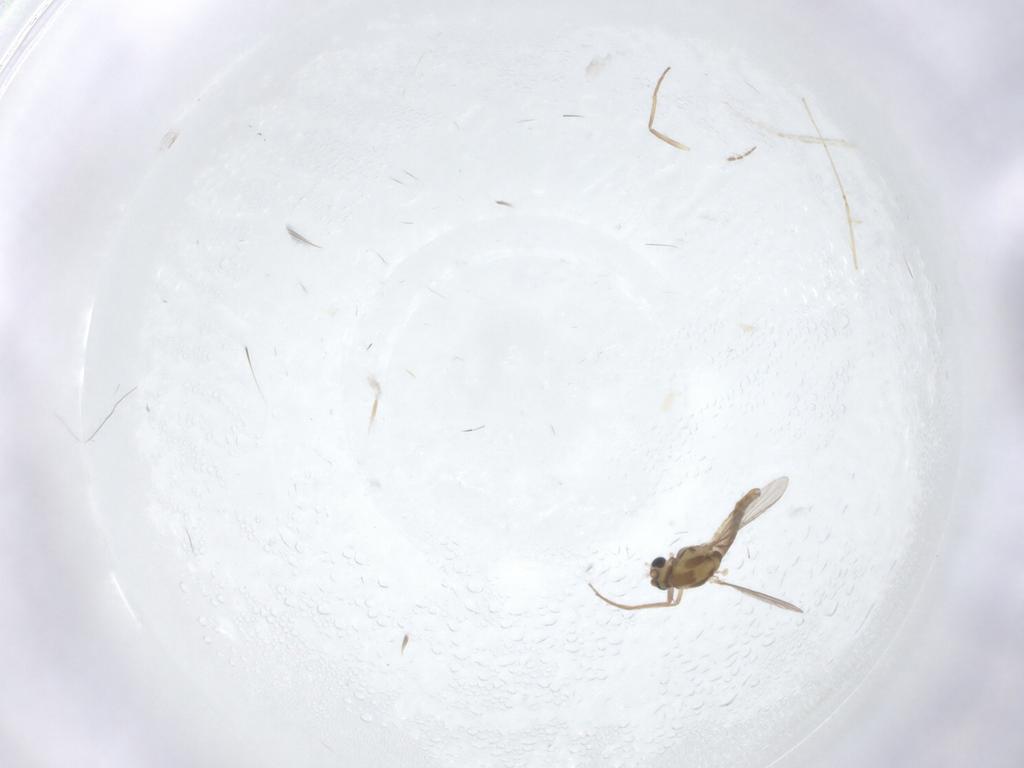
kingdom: Animalia
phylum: Arthropoda
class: Insecta
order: Diptera
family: Chironomidae
